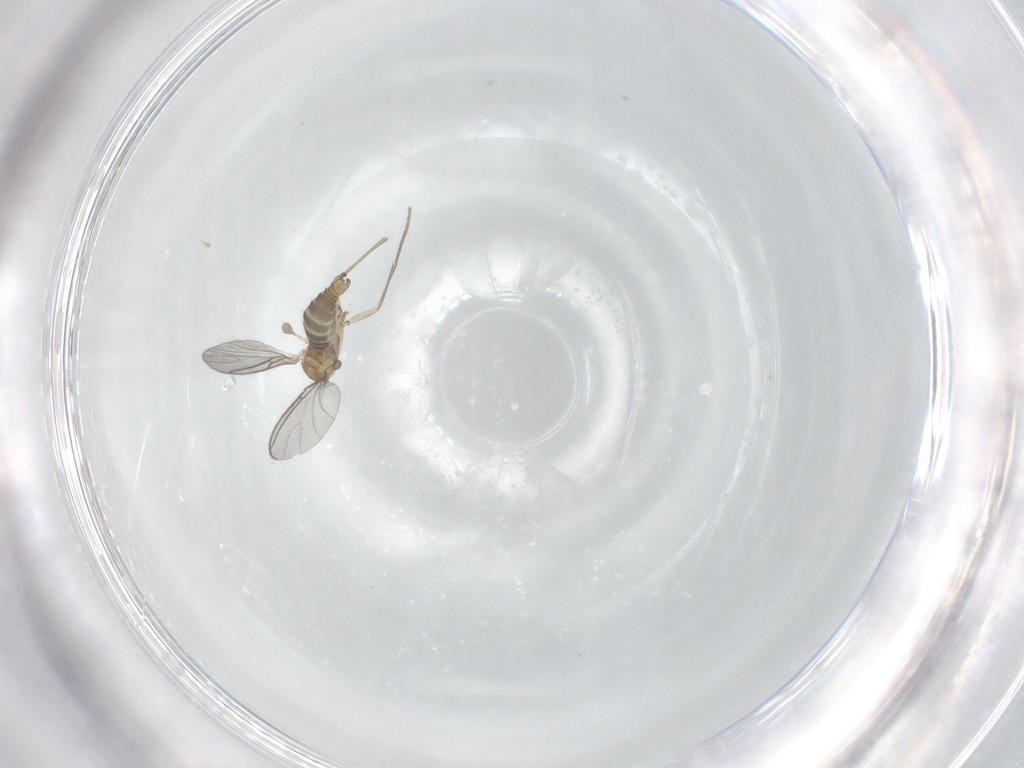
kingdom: Animalia
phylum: Arthropoda
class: Insecta
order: Diptera
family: Sciaridae
